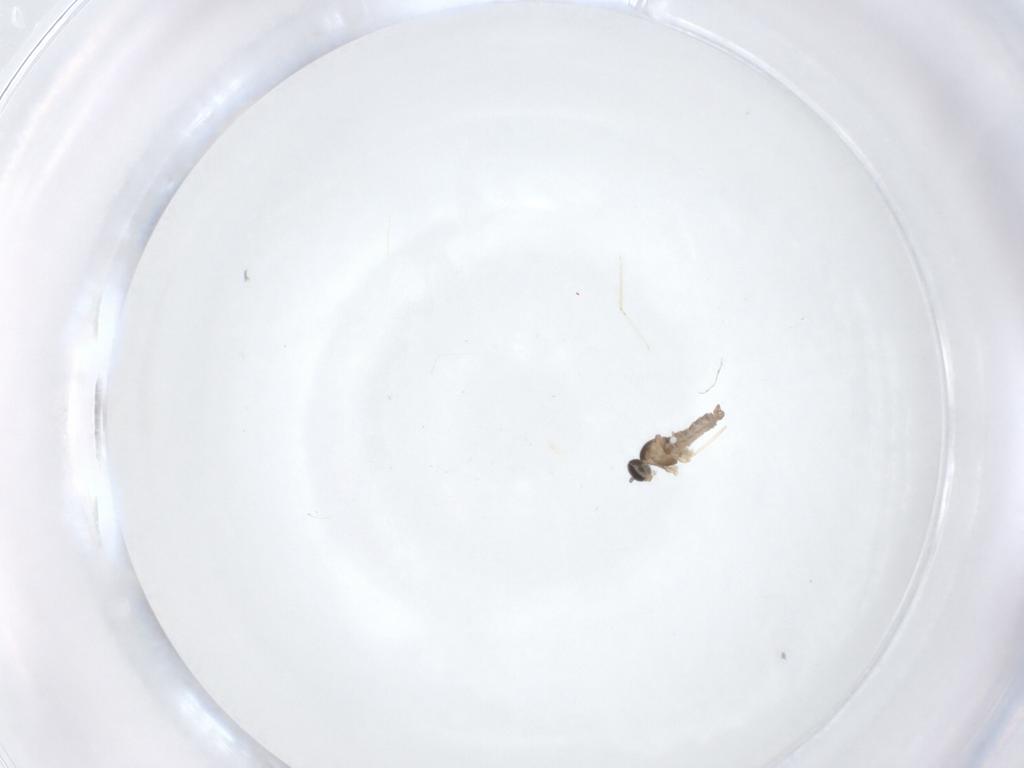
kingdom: Animalia
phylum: Arthropoda
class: Insecta
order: Diptera
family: Cecidomyiidae
